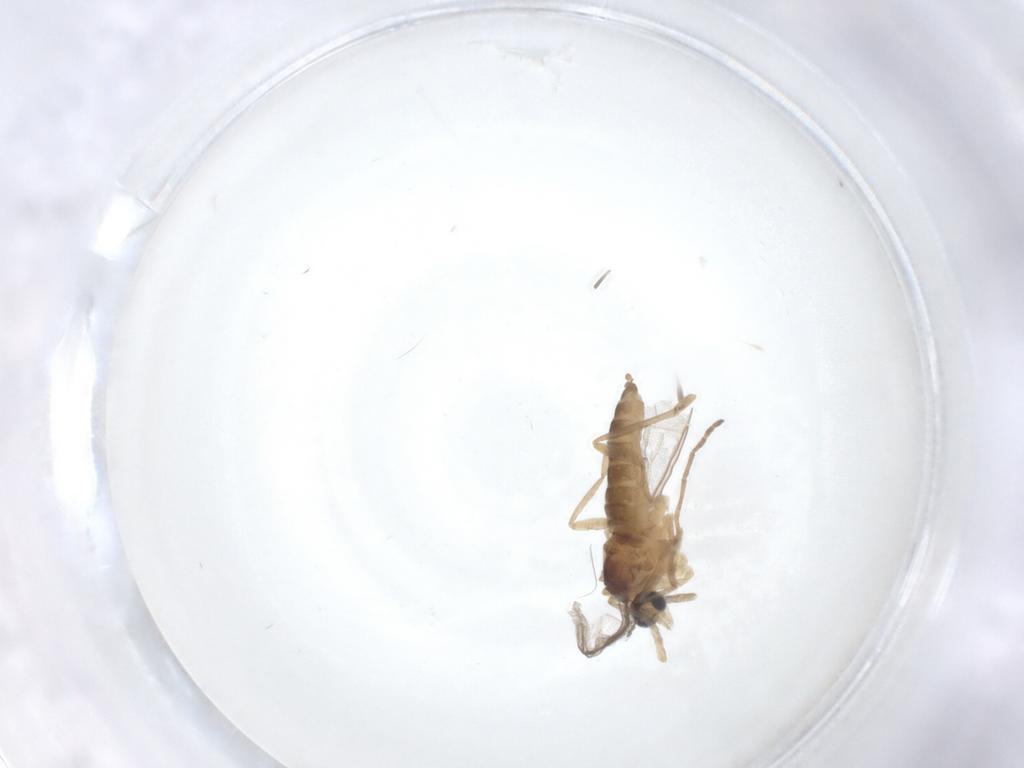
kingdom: Animalia
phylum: Arthropoda
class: Insecta
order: Diptera
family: Cecidomyiidae
